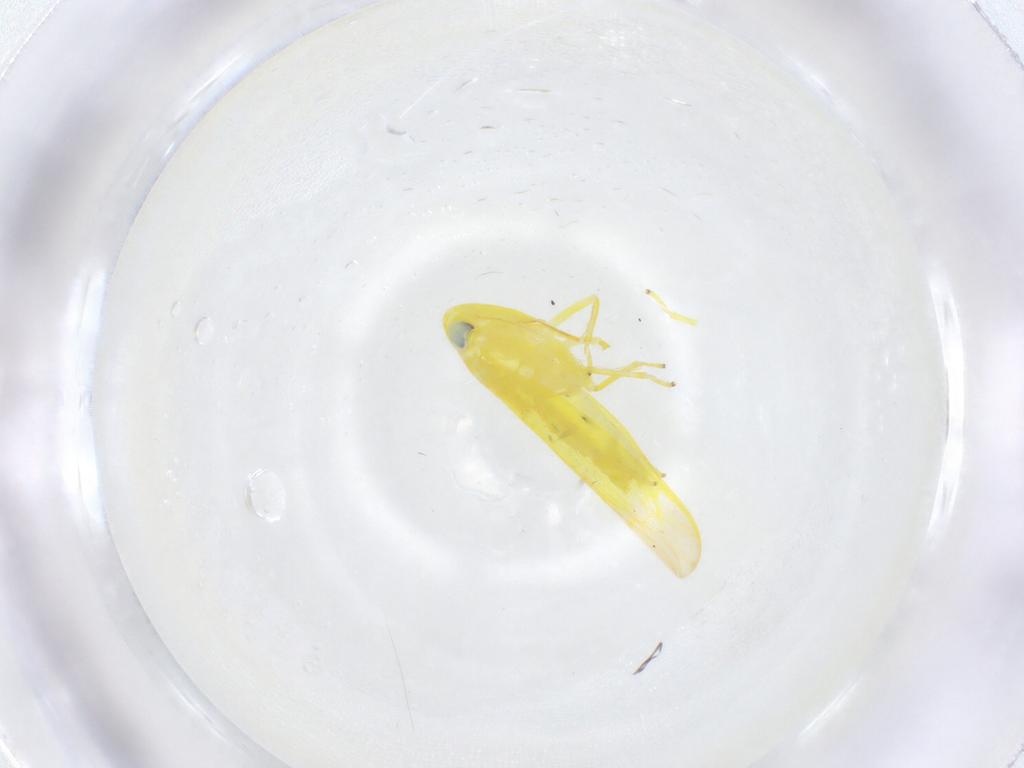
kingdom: Animalia
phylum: Arthropoda
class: Insecta
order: Hemiptera
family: Cicadellidae
